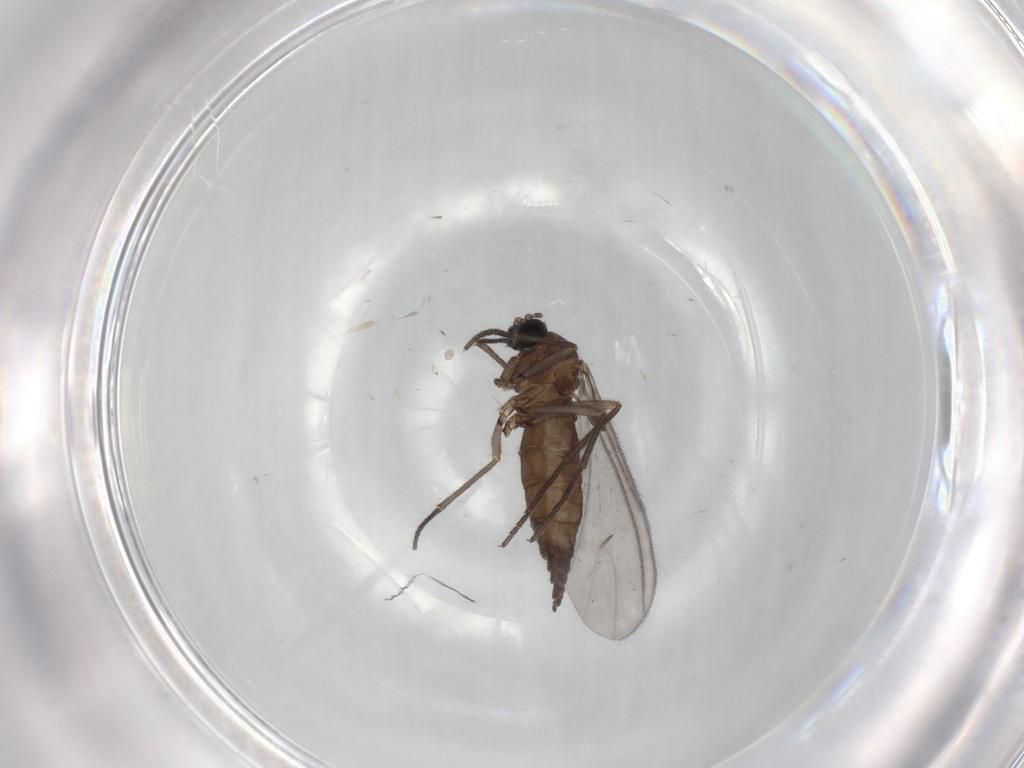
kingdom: Animalia
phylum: Arthropoda
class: Insecta
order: Diptera
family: Sciaridae
